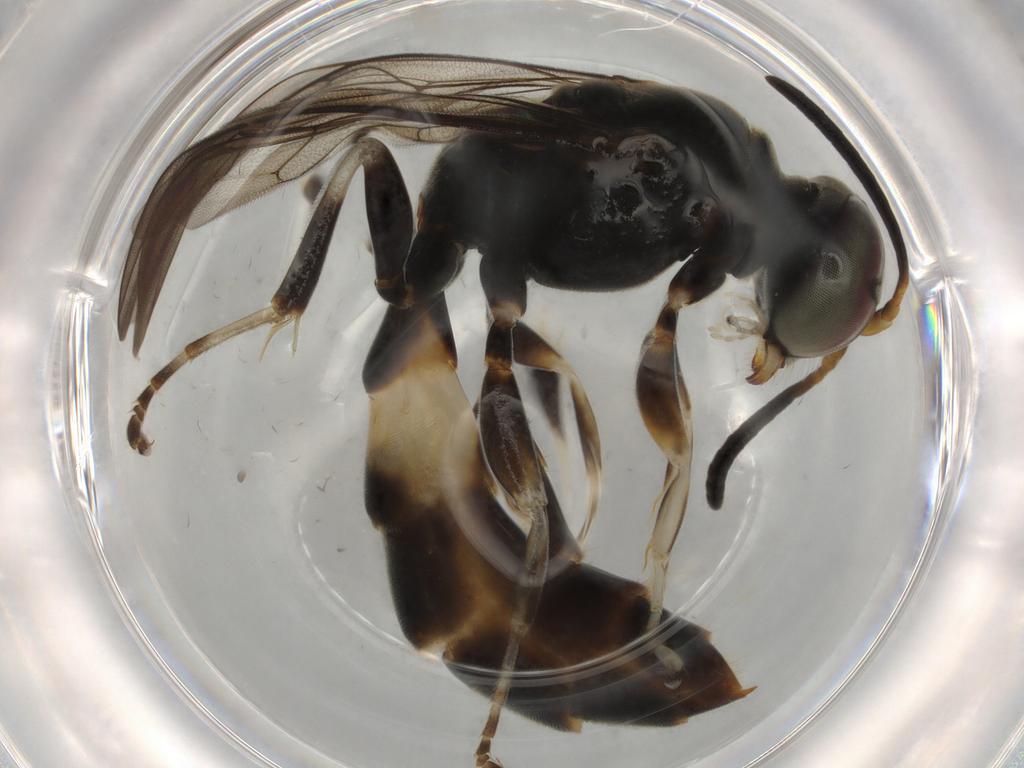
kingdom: Animalia
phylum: Arthropoda
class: Insecta
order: Hymenoptera
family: Crabronidae
